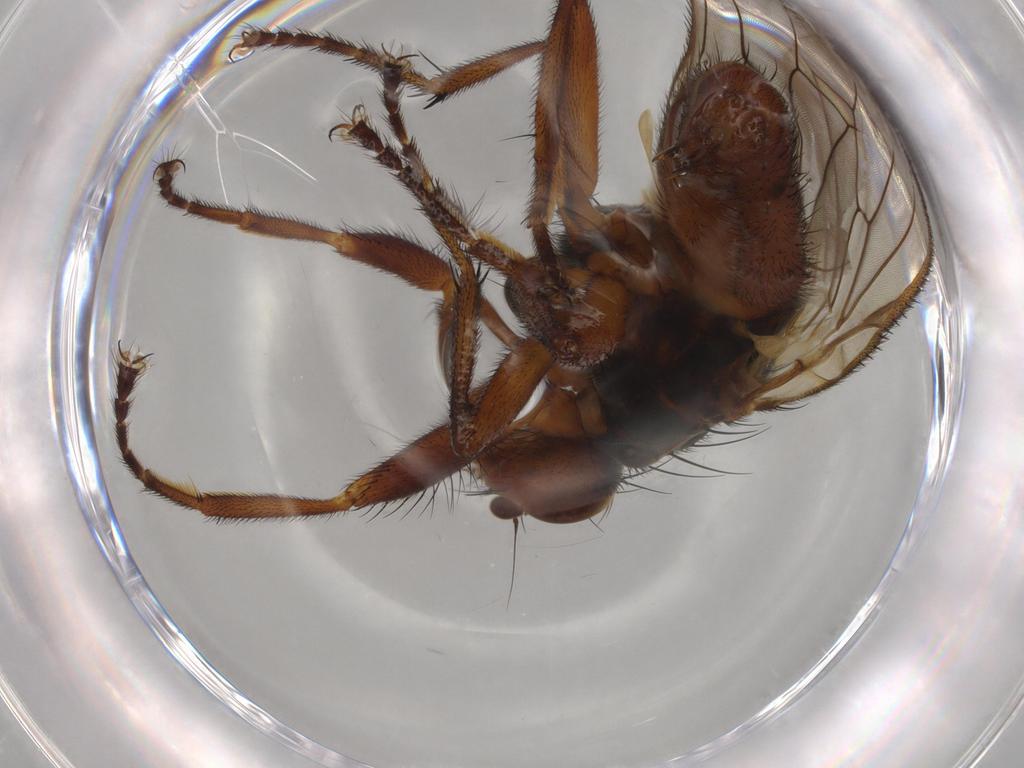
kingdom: Animalia
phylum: Arthropoda
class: Insecta
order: Diptera
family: Heleomyzidae
